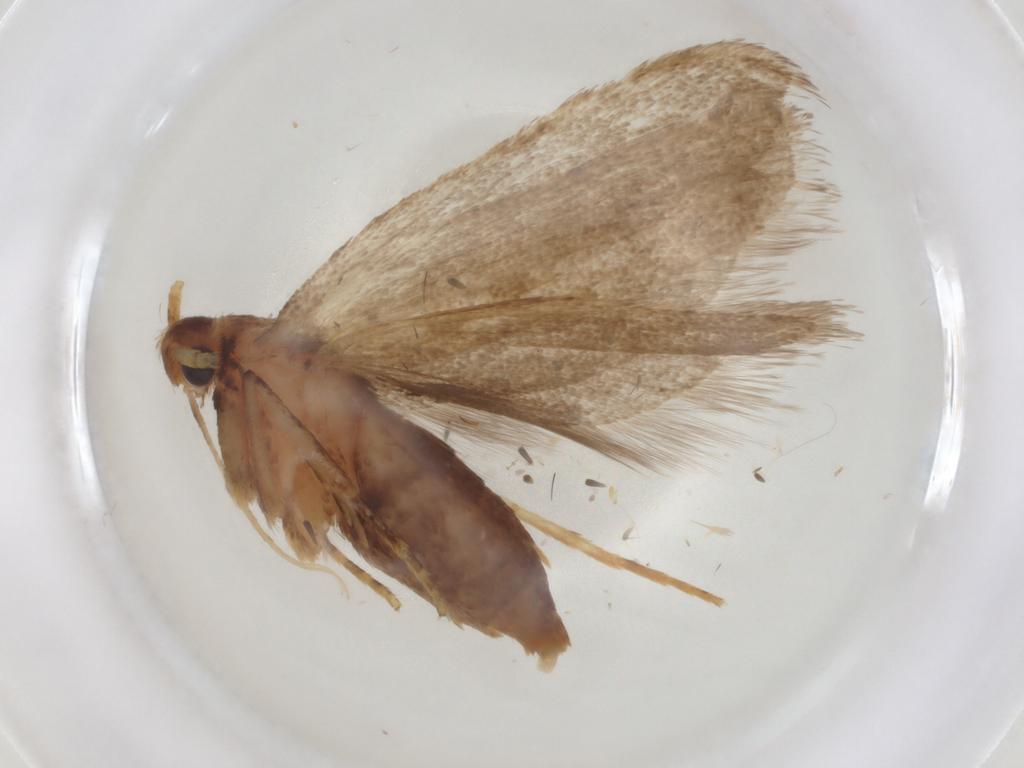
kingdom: Animalia
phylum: Arthropoda
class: Insecta
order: Lepidoptera
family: Lecithoceridae
